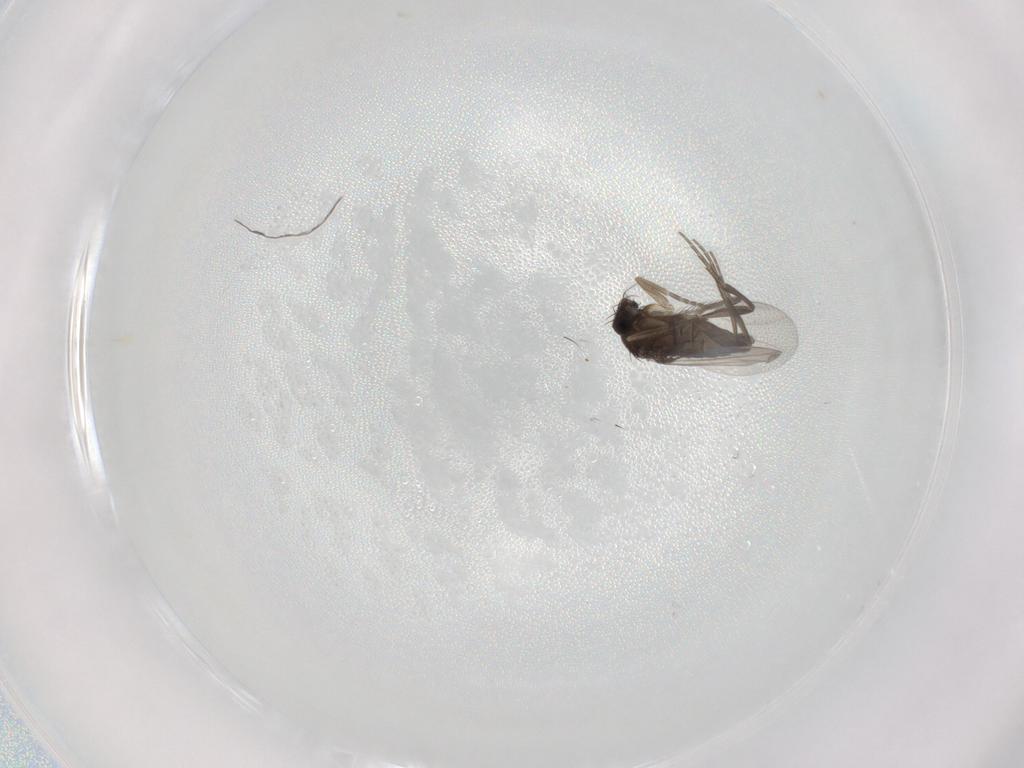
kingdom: Animalia
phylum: Arthropoda
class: Insecta
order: Diptera
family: Phoridae
